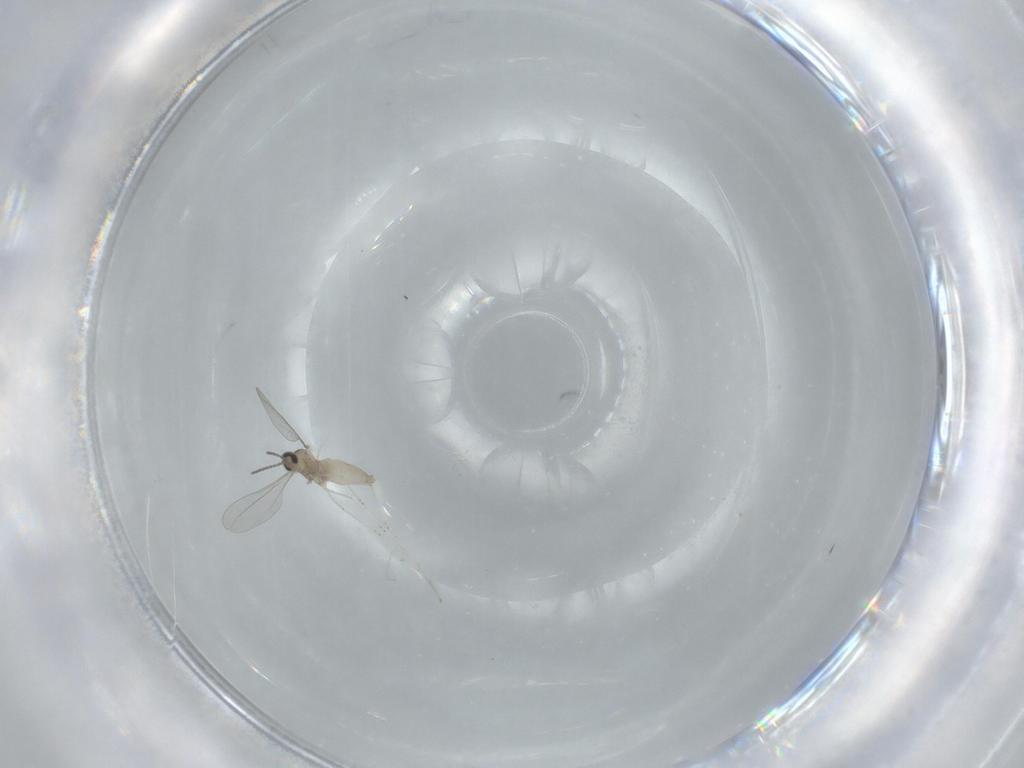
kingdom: Animalia
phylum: Arthropoda
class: Insecta
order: Diptera
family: Cecidomyiidae
